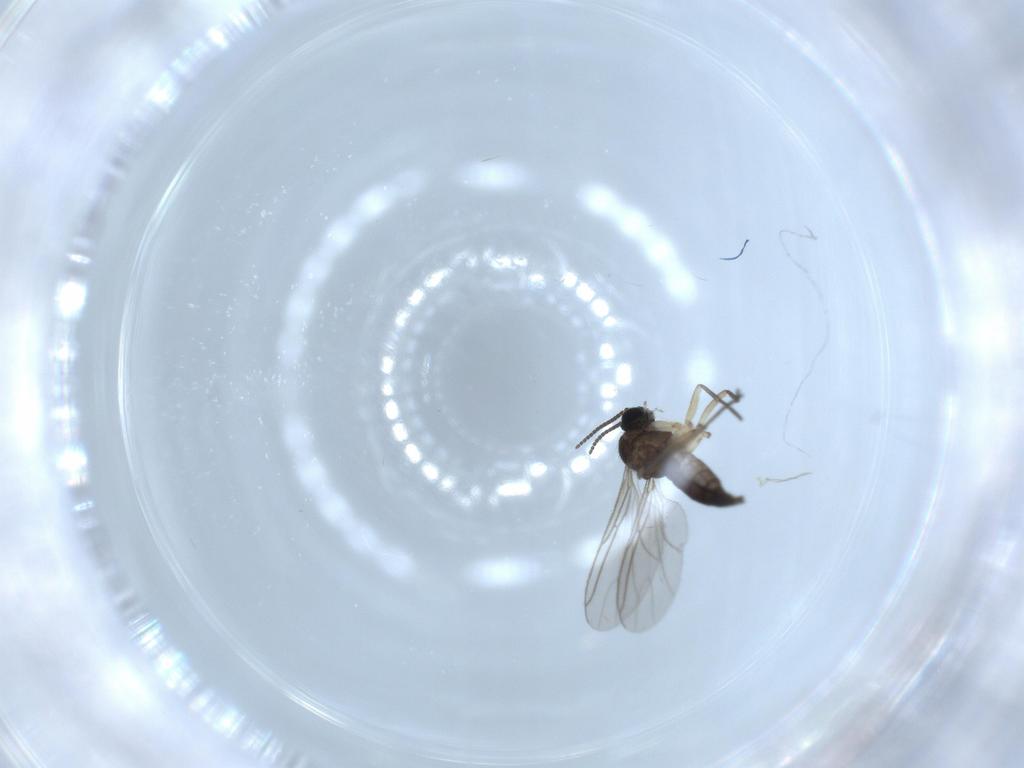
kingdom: Animalia
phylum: Arthropoda
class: Insecta
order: Diptera
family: Sciaridae
